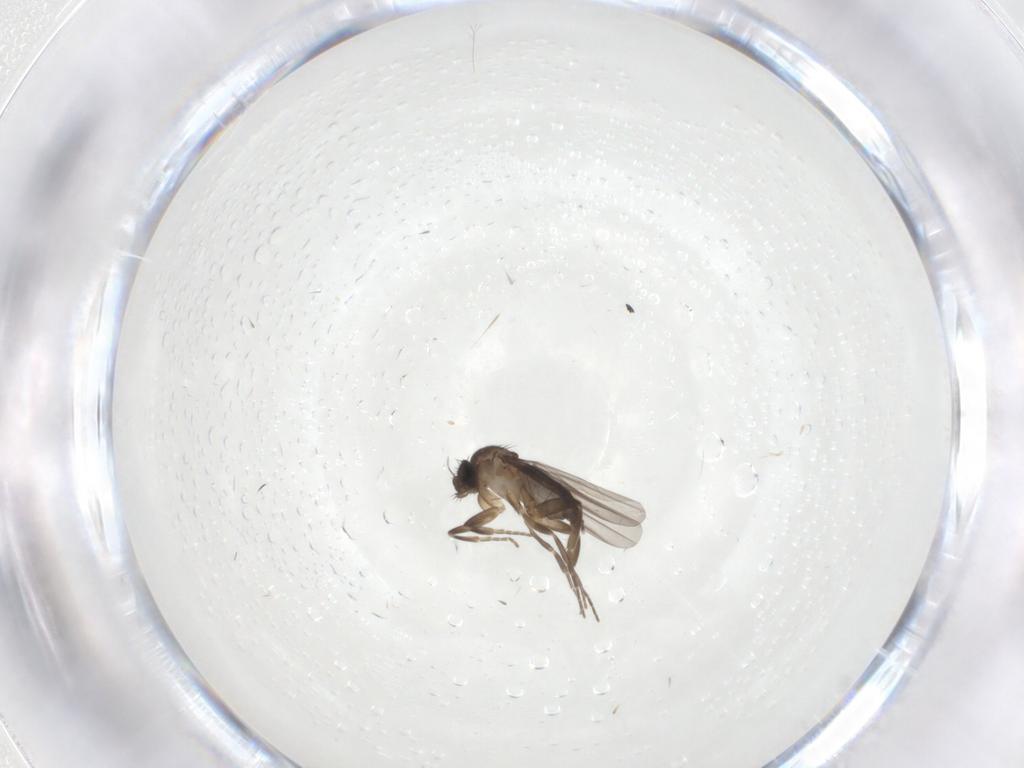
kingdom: Animalia
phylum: Arthropoda
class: Insecta
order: Diptera
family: Phoridae
